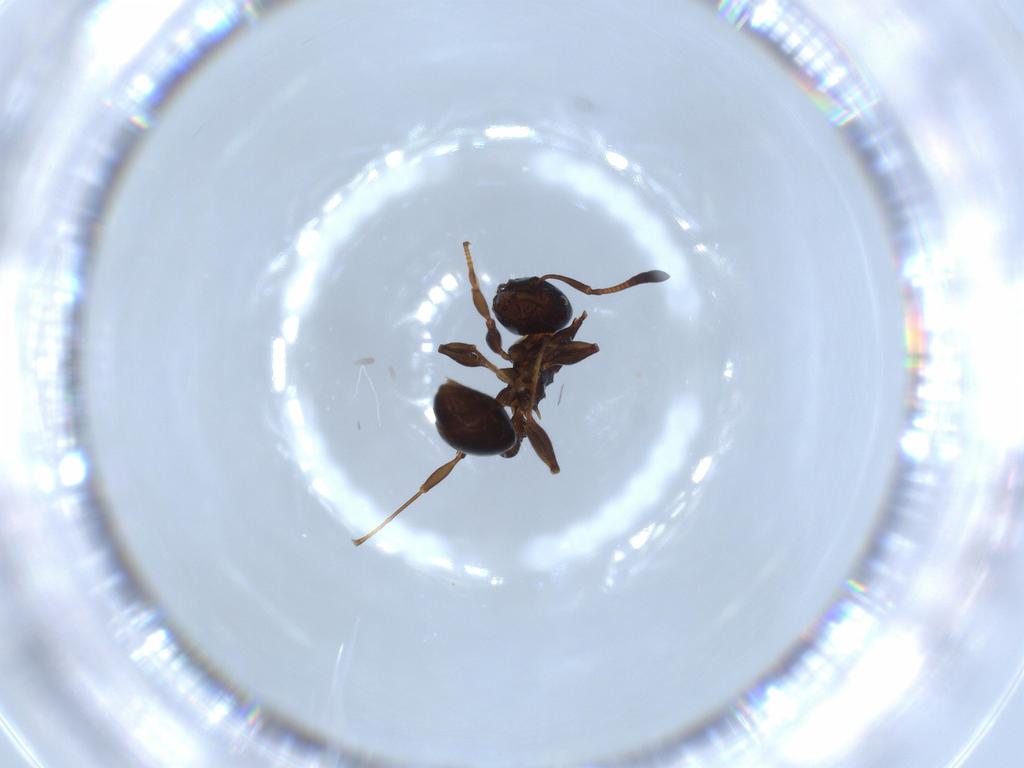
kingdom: Animalia
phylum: Arthropoda
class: Insecta
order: Hymenoptera
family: Formicidae
